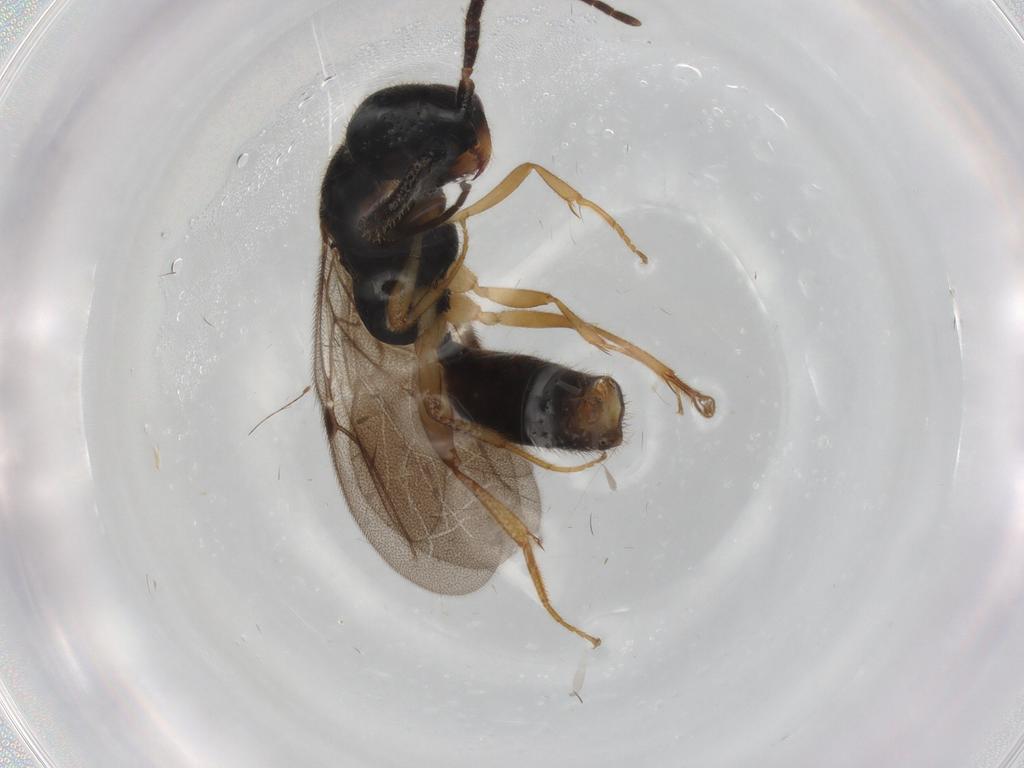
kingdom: Animalia
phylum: Arthropoda
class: Insecta
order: Hymenoptera
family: Bethylidae
